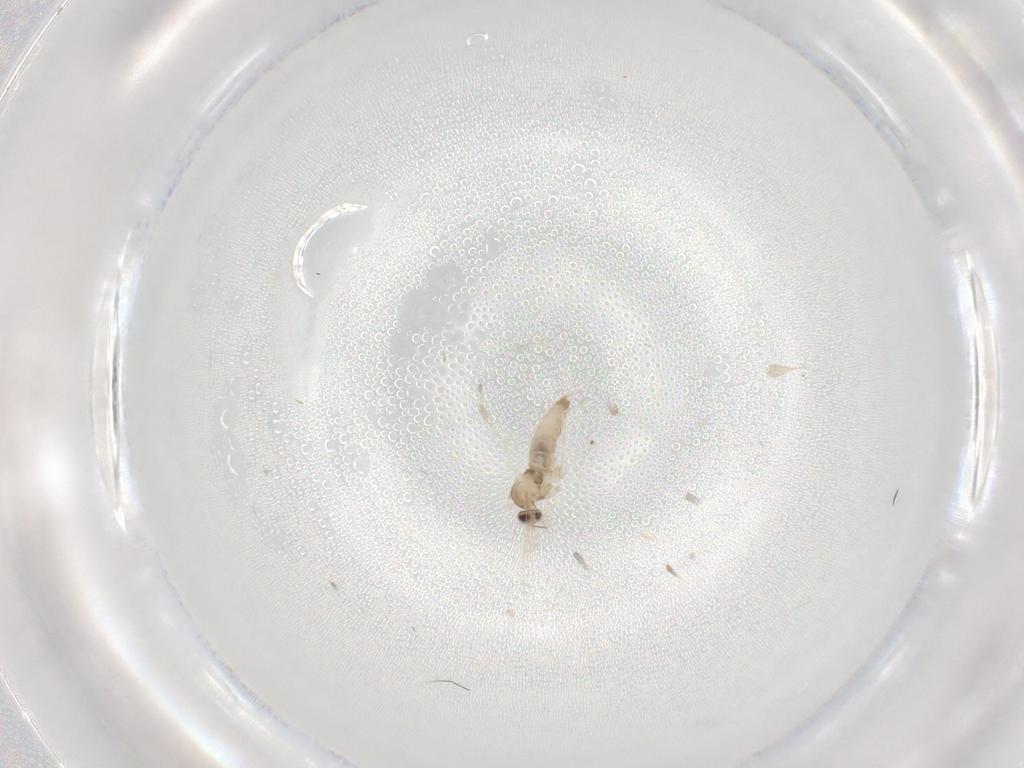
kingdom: Animalia
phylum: Arthropoda
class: Insecta
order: Diptera
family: Cecidomyiidae
